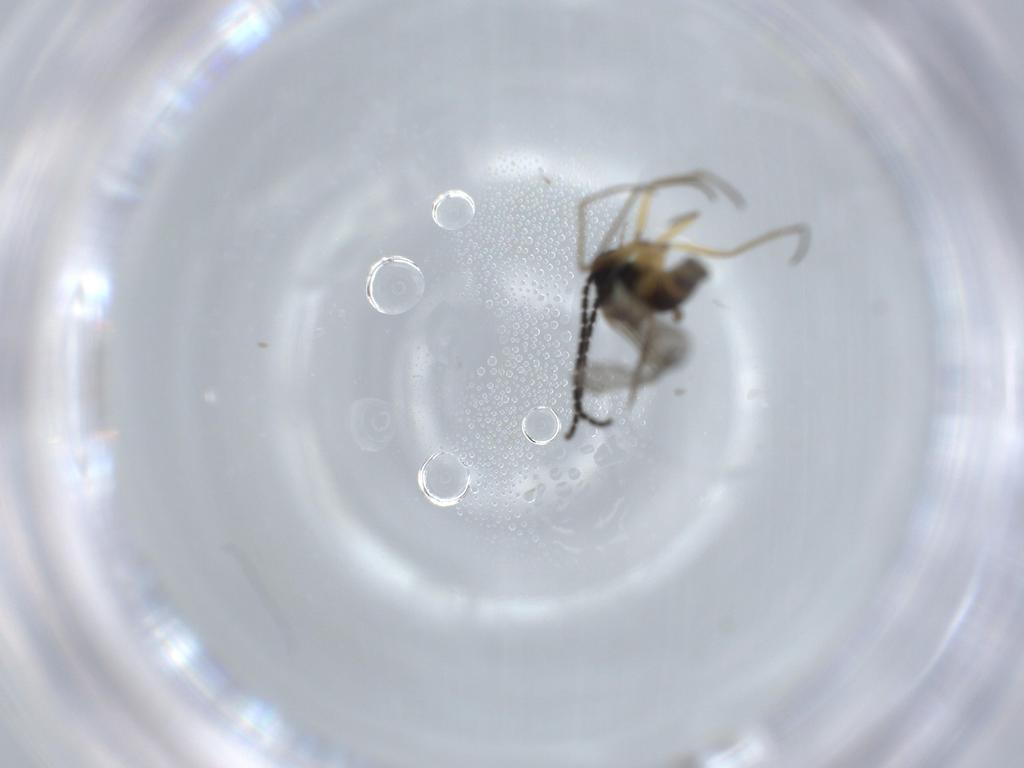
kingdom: Animalia
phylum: Arthropoda
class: Insecta
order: Diptera
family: Sciaridae
